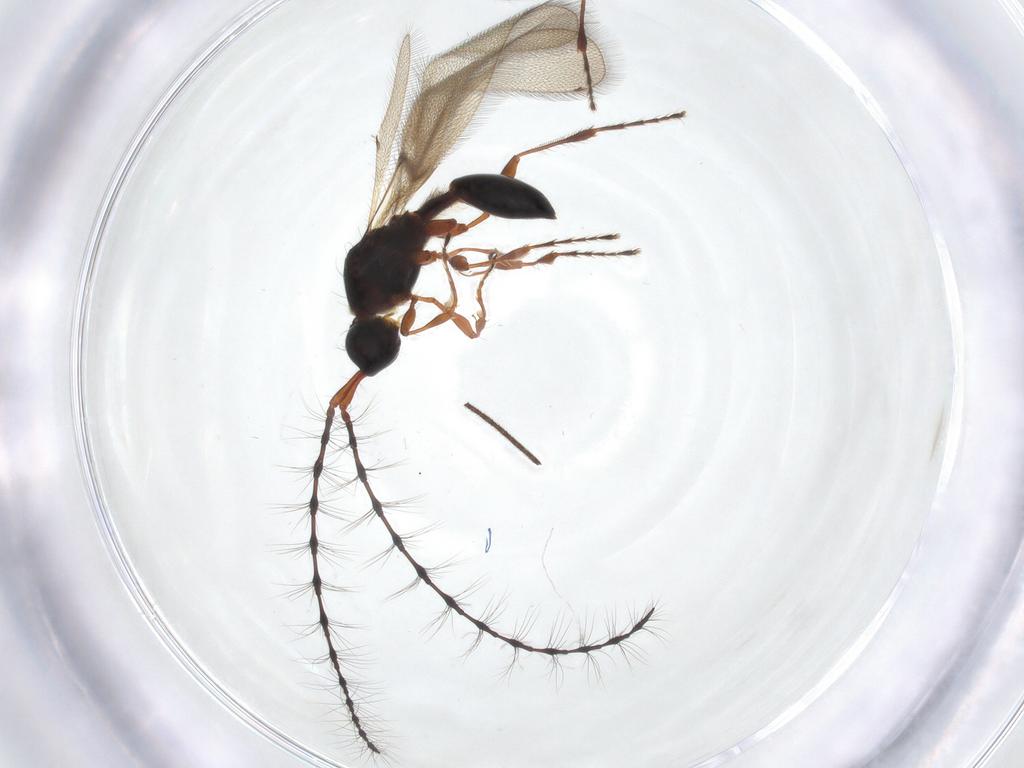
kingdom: Animalia
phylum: Arthropoda
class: Insecta
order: Hymenoptera
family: Diapriidae
